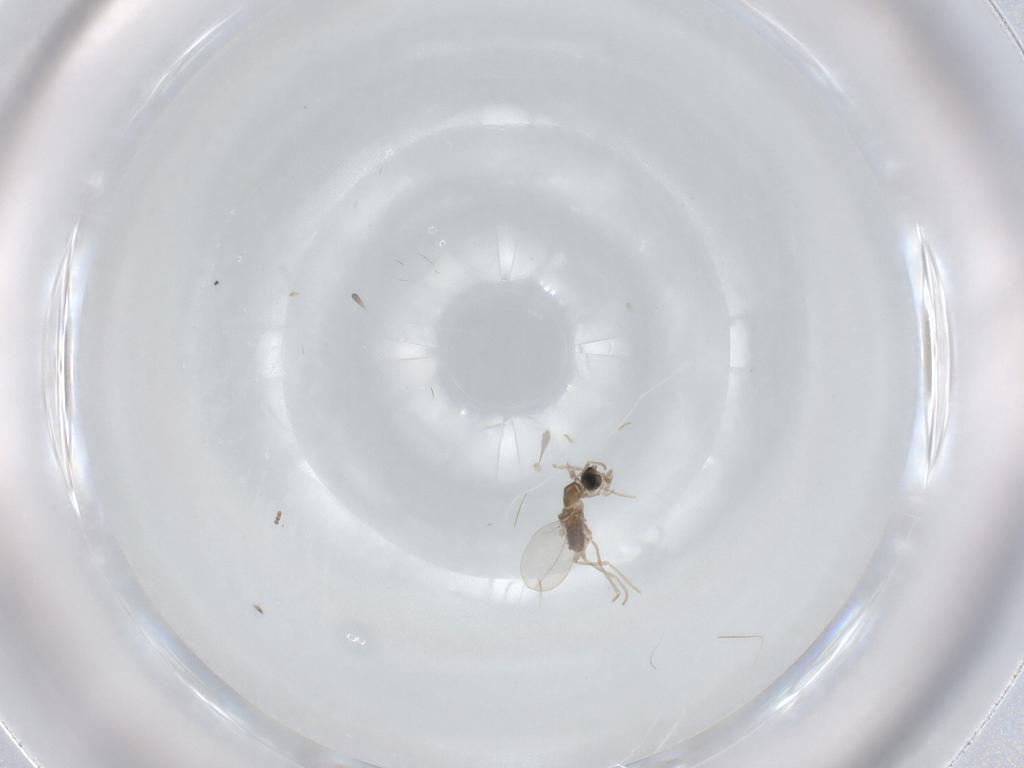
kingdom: Animalia
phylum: Arthropoda
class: Insecta
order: Diptera
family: Cecidomyiidae
